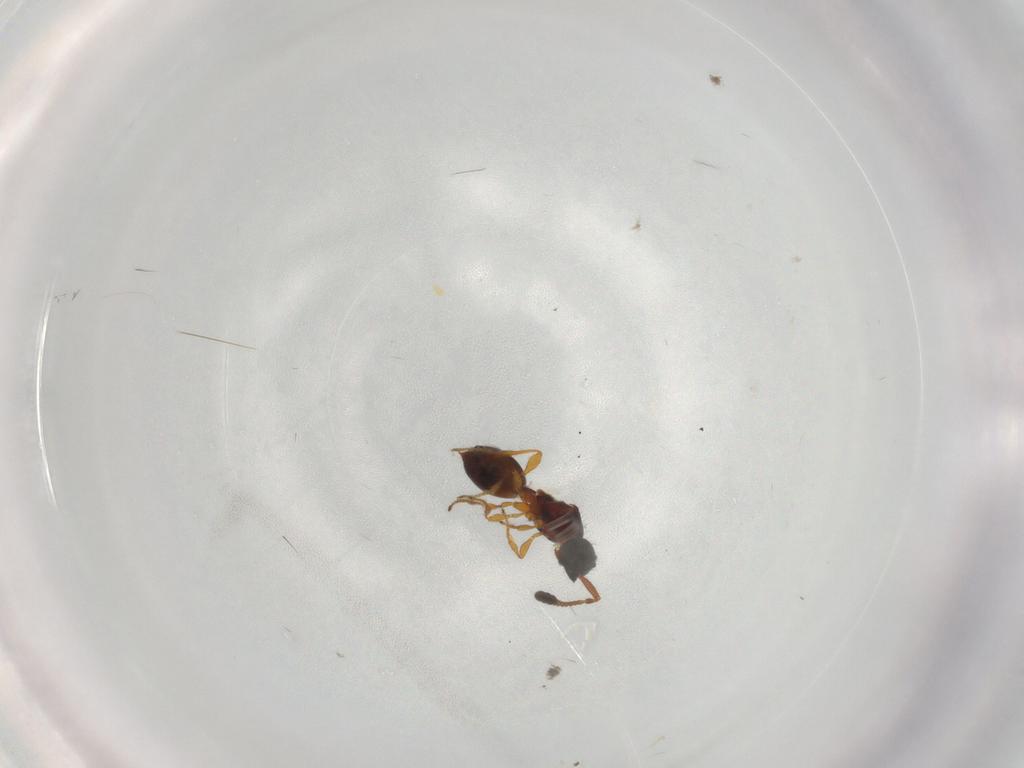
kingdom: Animalia
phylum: Arthropoda
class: Insecta
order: Hymenoptera
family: Diapriidae
